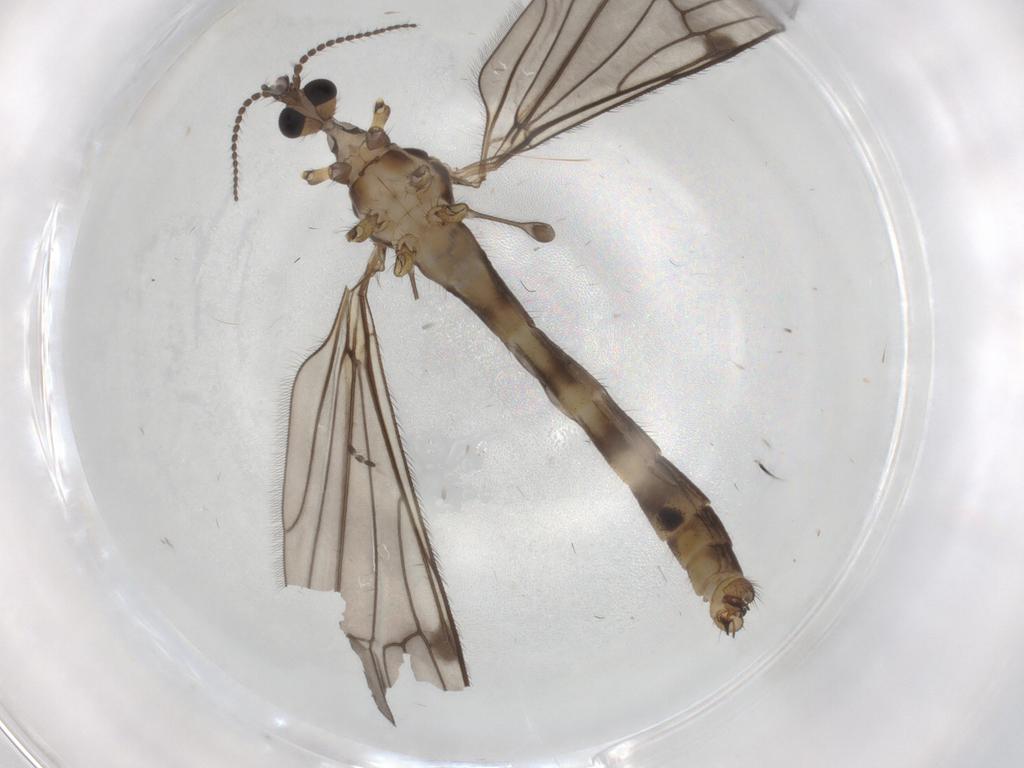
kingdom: Animalia
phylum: Arthropoda
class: Insecta
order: Diptera
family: Limoniidae
